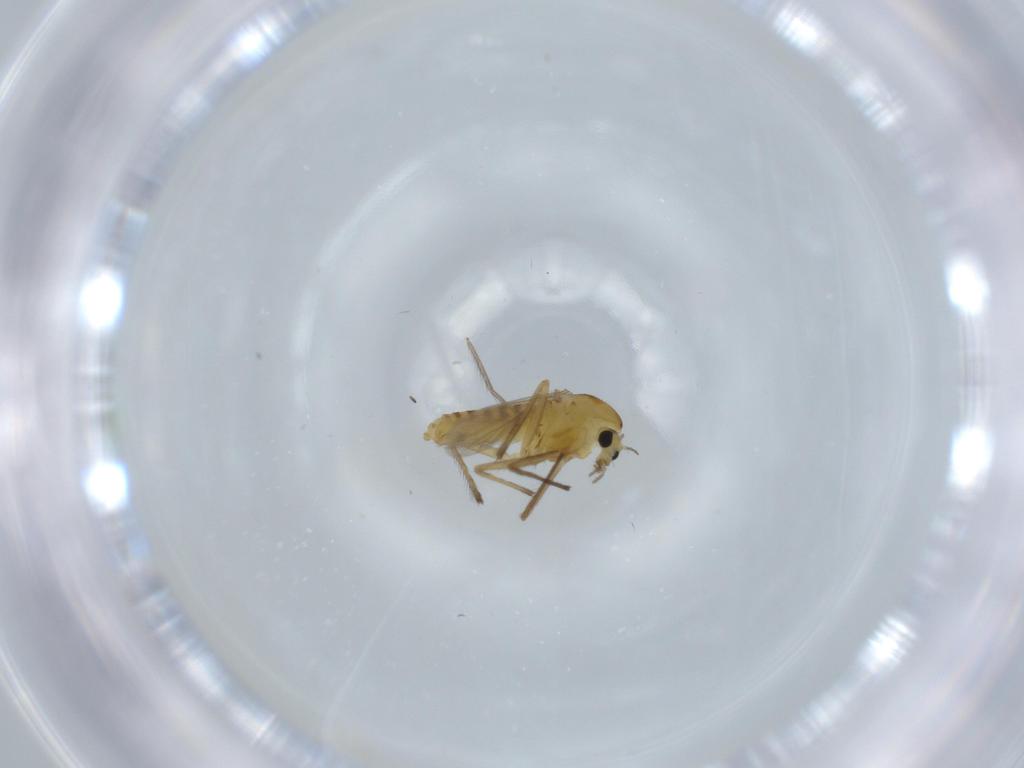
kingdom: Animalia
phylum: Arthropoda
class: Insecta
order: Diptera
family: Chironomidae
